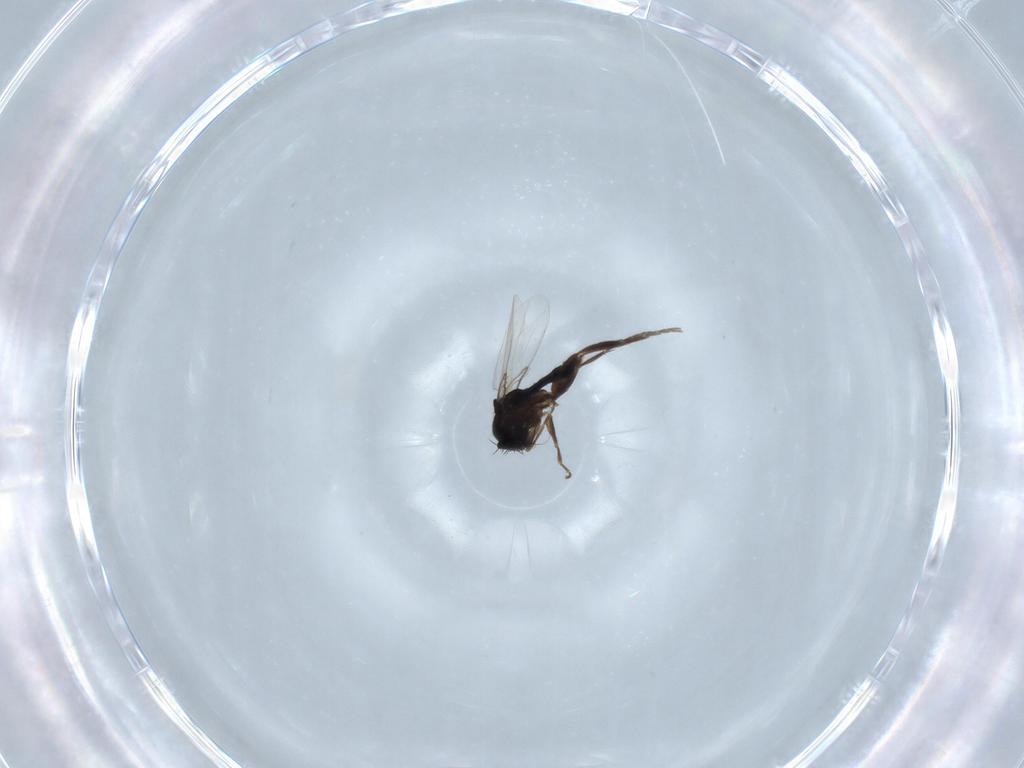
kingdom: Animalia
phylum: Arthropoda
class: Insecta
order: Diptera
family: Phoridae
